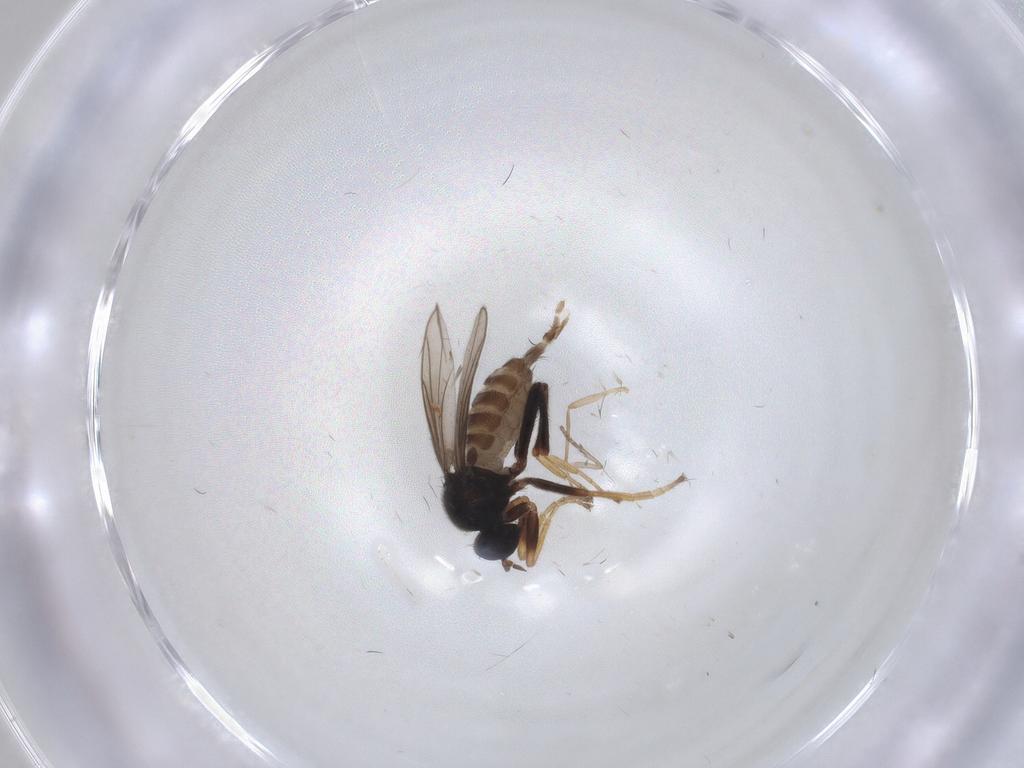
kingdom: Animalia
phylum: Arthropoda
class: Insecta
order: Diptera
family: Chironomidae
